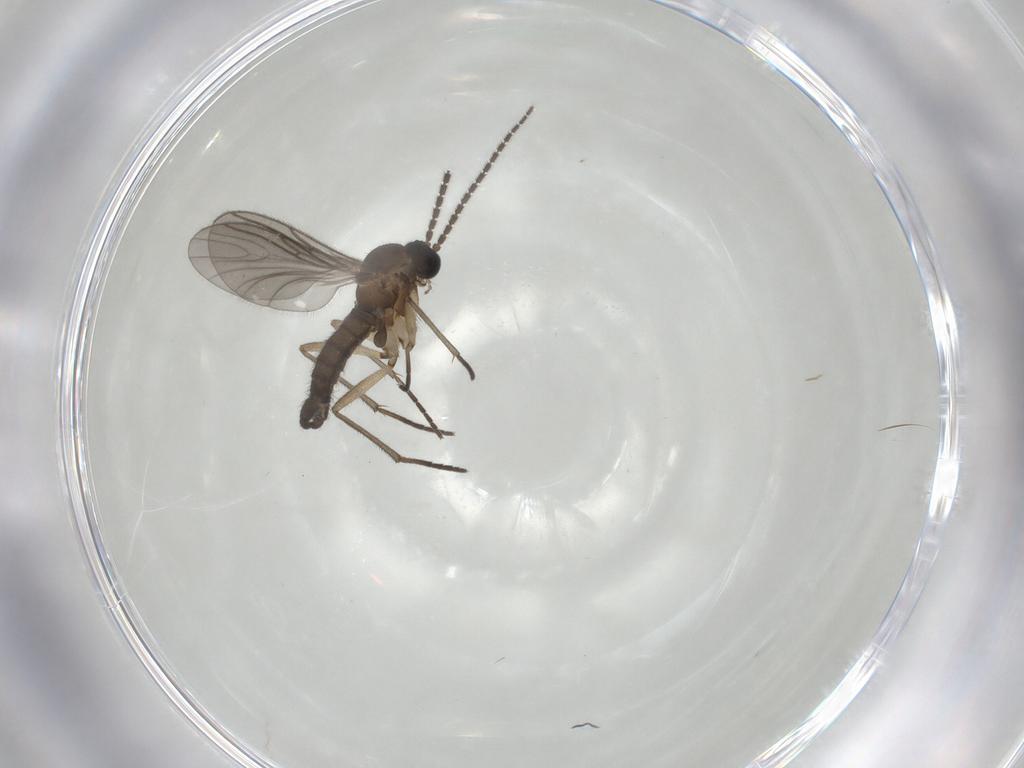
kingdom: Animalia
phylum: Arthropoda
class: Insecta
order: Diptera
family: Sciaridae
